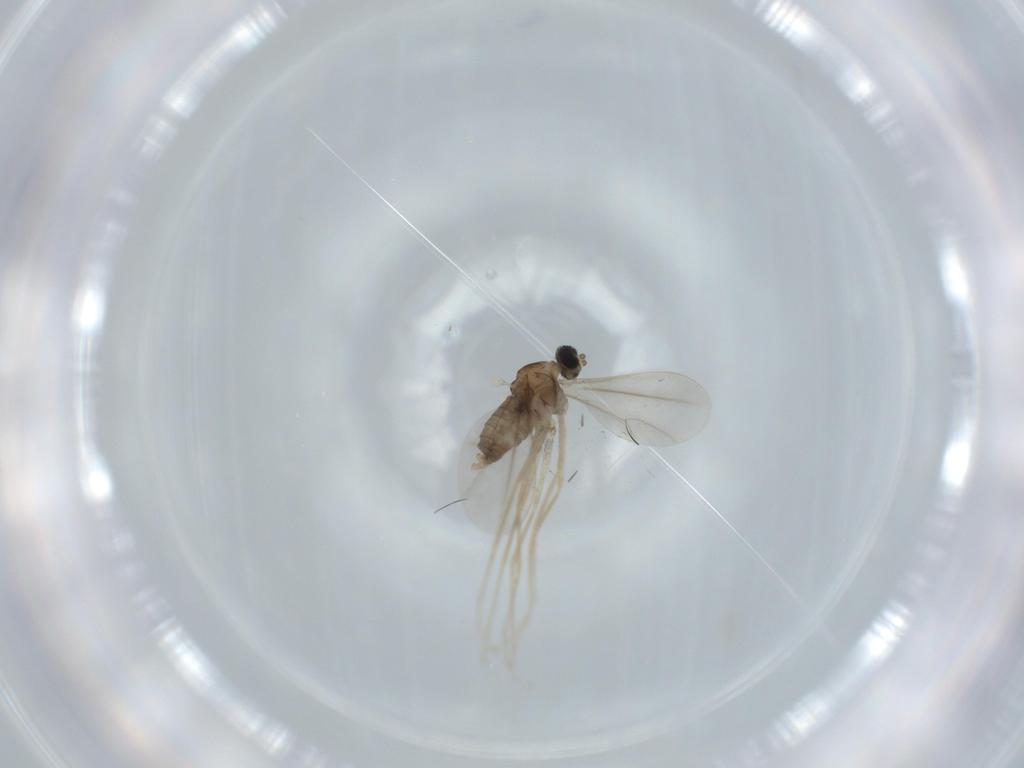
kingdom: Animalia
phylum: Arthropoda
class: Insecta
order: Diptera
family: Cecidomyiidae
